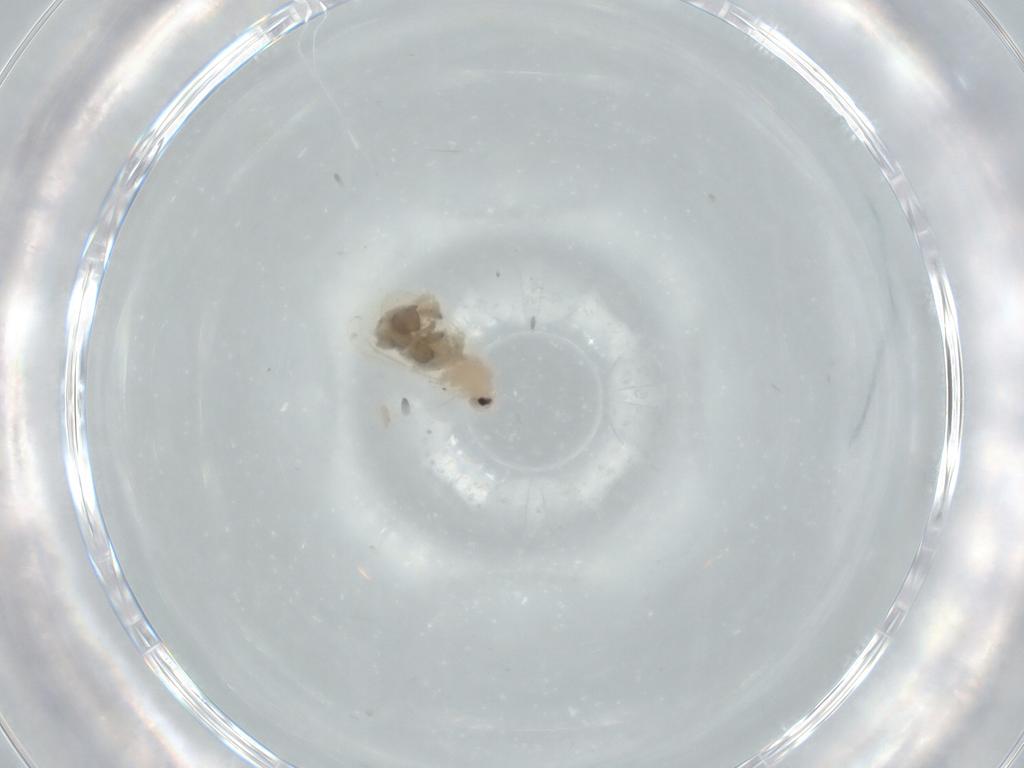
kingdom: Animalia
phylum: Arthropoda
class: Insecta
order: Hemiptera
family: Aleyrodidae
